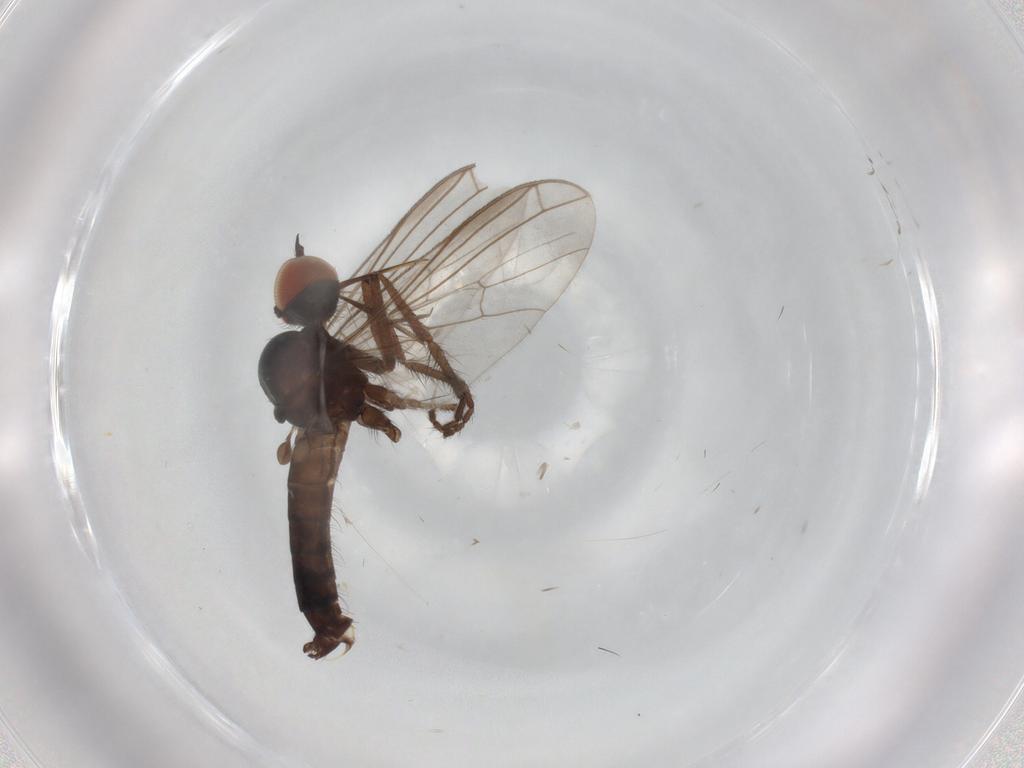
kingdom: Animalia
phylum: Arthropoda
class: Insecta
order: Diptera
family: Empididae
